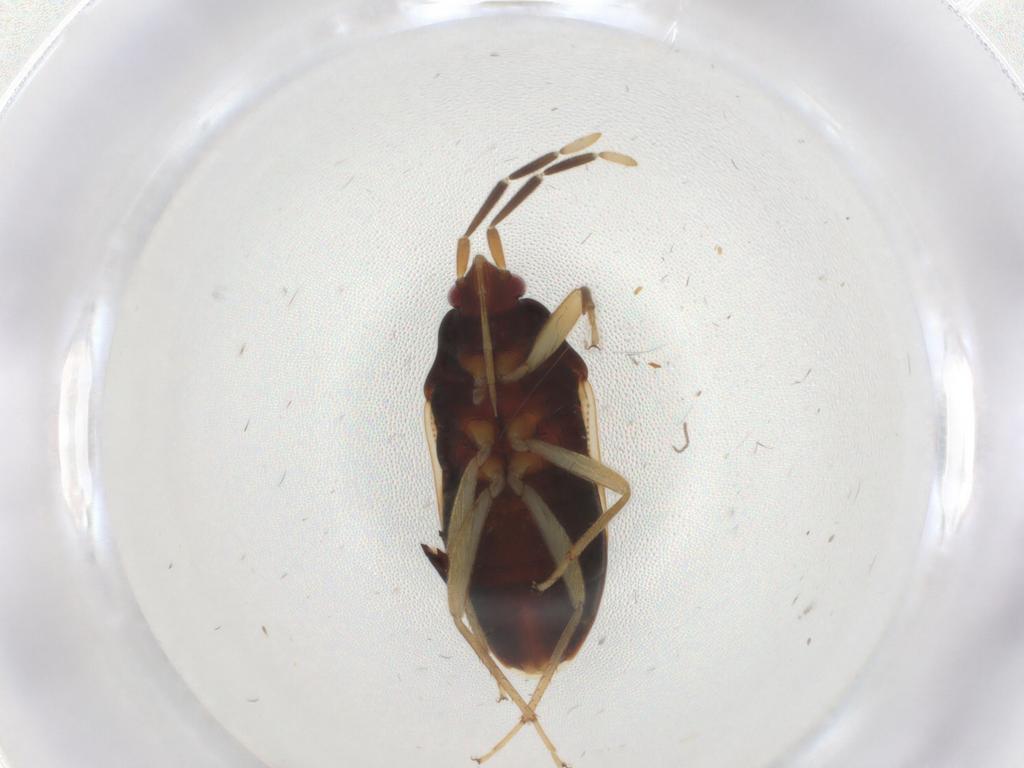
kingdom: Animalia
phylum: Arthropoda
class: Insecta
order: Hemiptera
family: Rhyparochromidae
